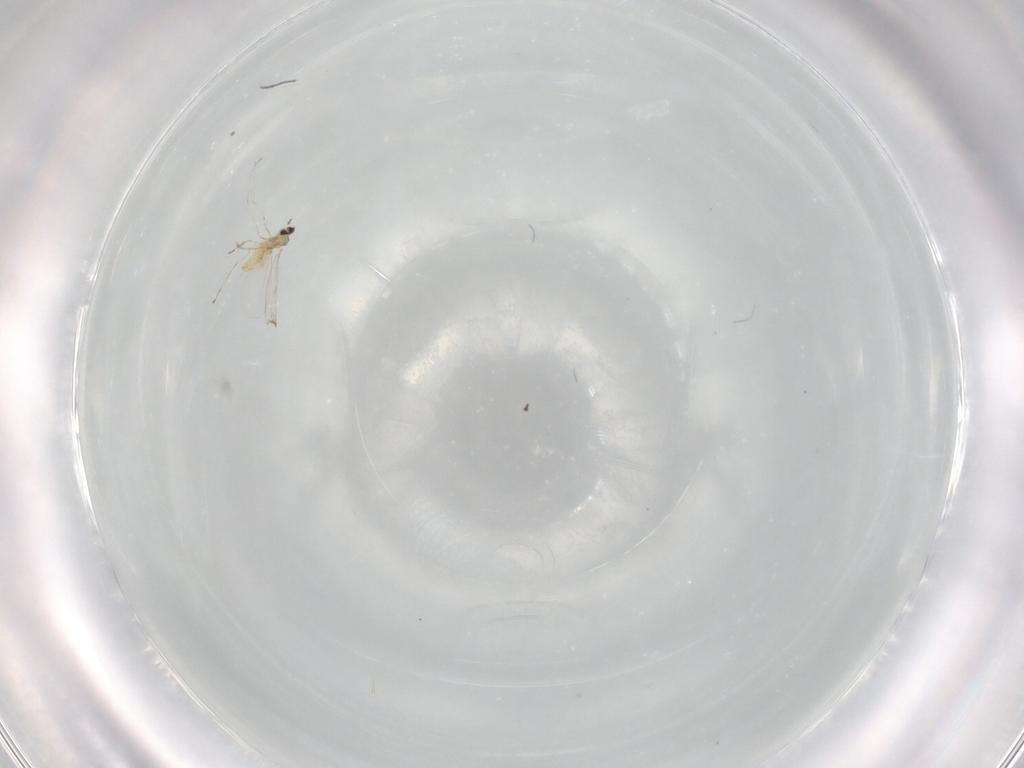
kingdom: Animalia
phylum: Arthropoda
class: Insecta
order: Diptera
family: Cecidomyiidae
